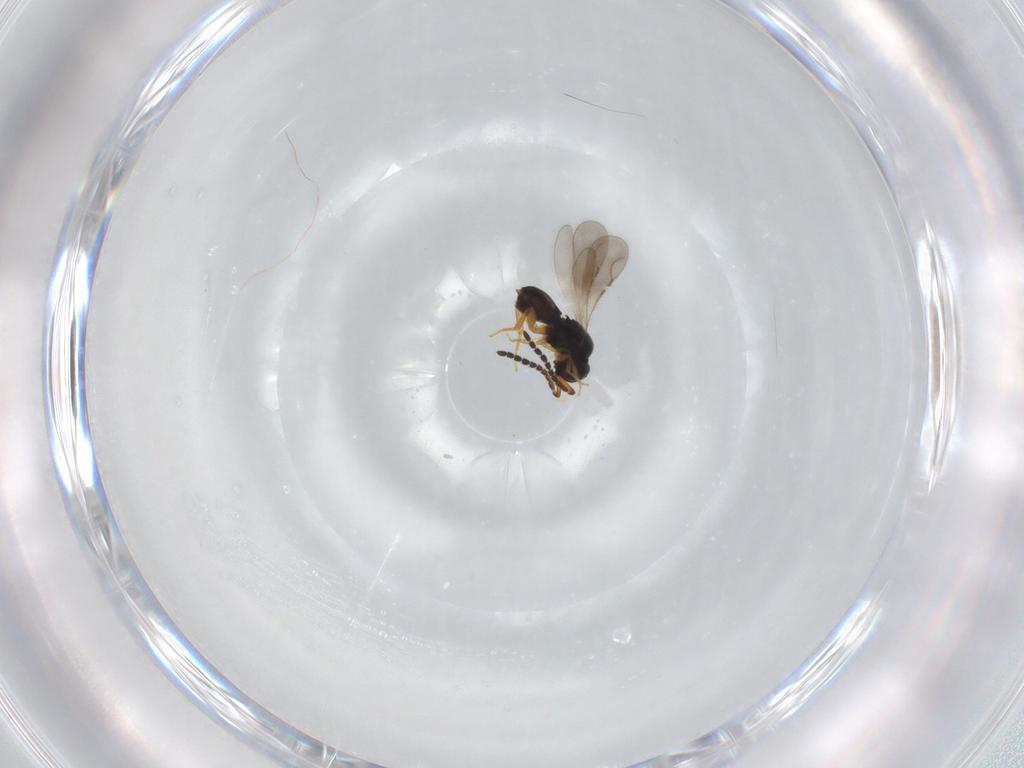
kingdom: Animalia
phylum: Arthropoda
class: Insecta
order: Hymenoptera
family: Ceraphronidae
